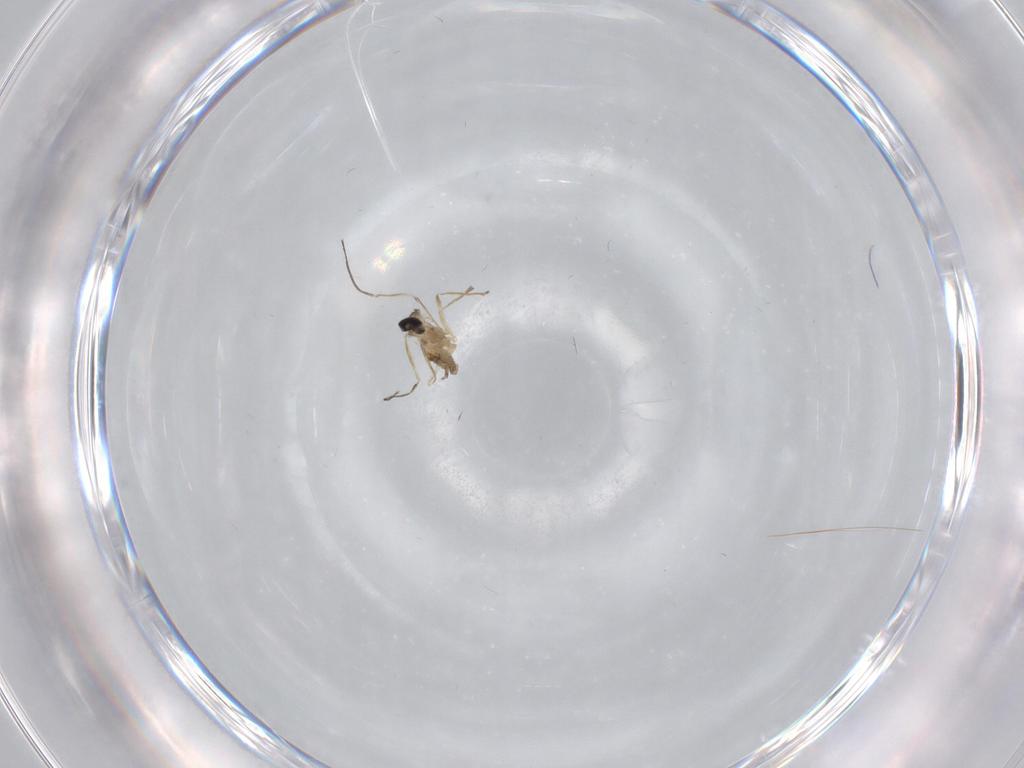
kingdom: Animalia
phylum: Arthropoda
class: Insecta
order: Diptera
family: Cecidomyiidae
